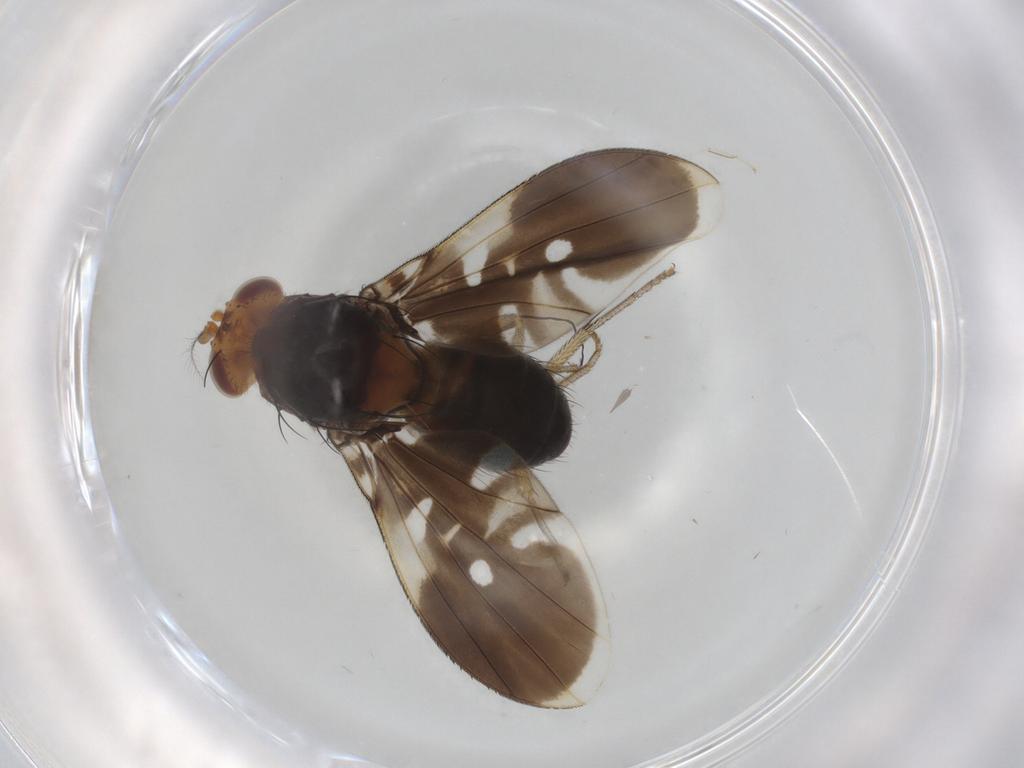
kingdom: Animalia
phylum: Arthropoda
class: Insecta
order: Diptera
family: Lauxaniidae
